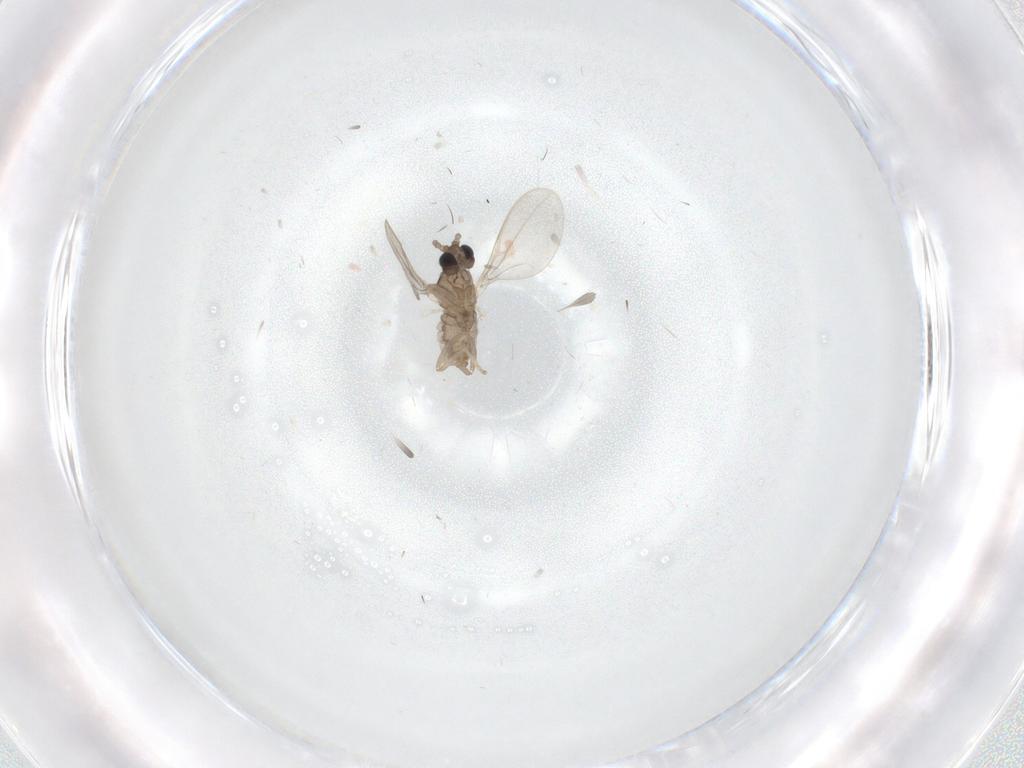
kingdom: Animalia
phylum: Arthropoda
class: Insecta
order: Diptera
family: Cecidomyiidae
